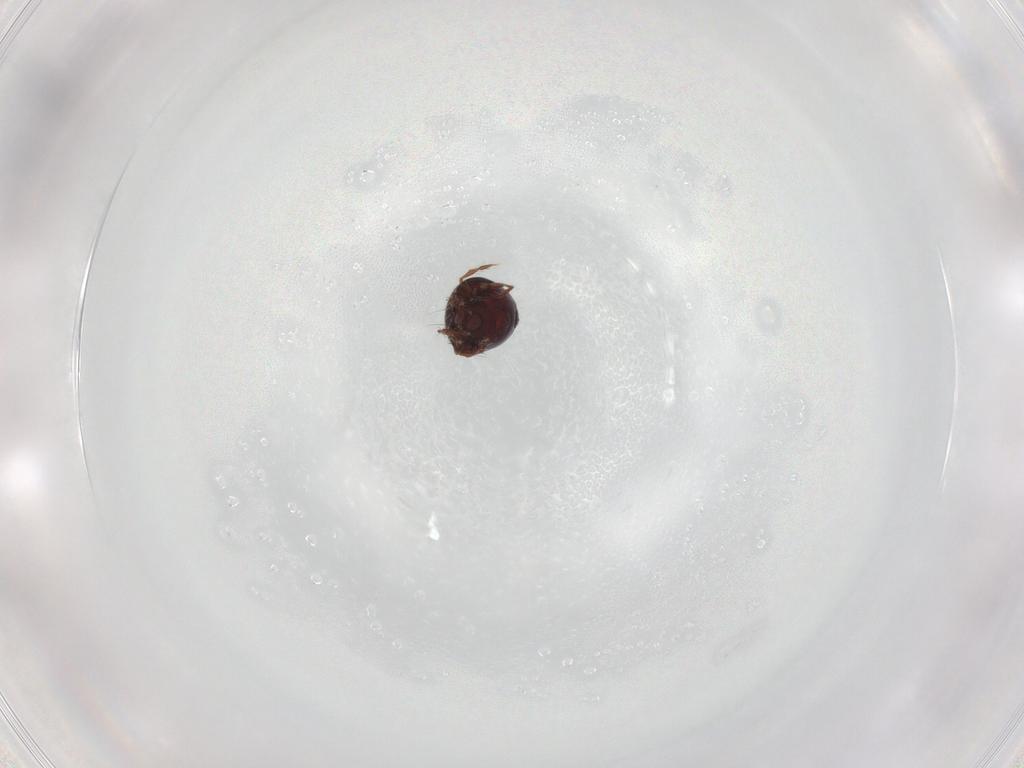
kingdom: Animalia
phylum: Arthropoda
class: Arachnida
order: Sarcoptiformes
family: Ceratoppiidae
